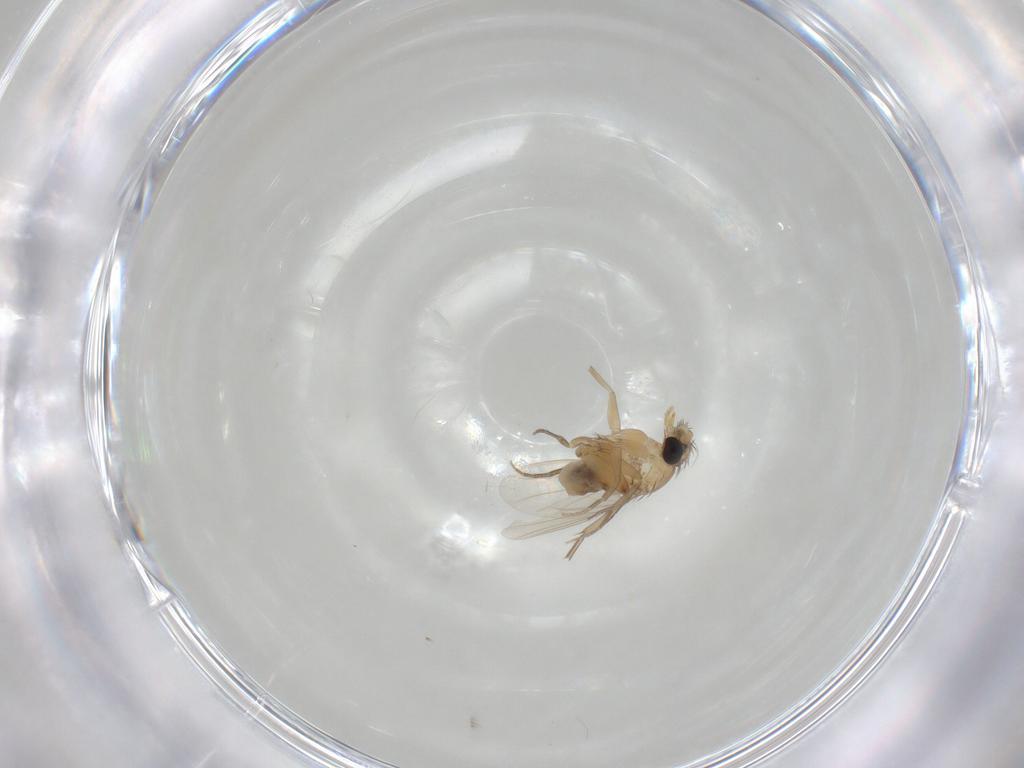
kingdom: Animalia
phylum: Arthropoda
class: Insecta
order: Diptera
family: Phoridae
